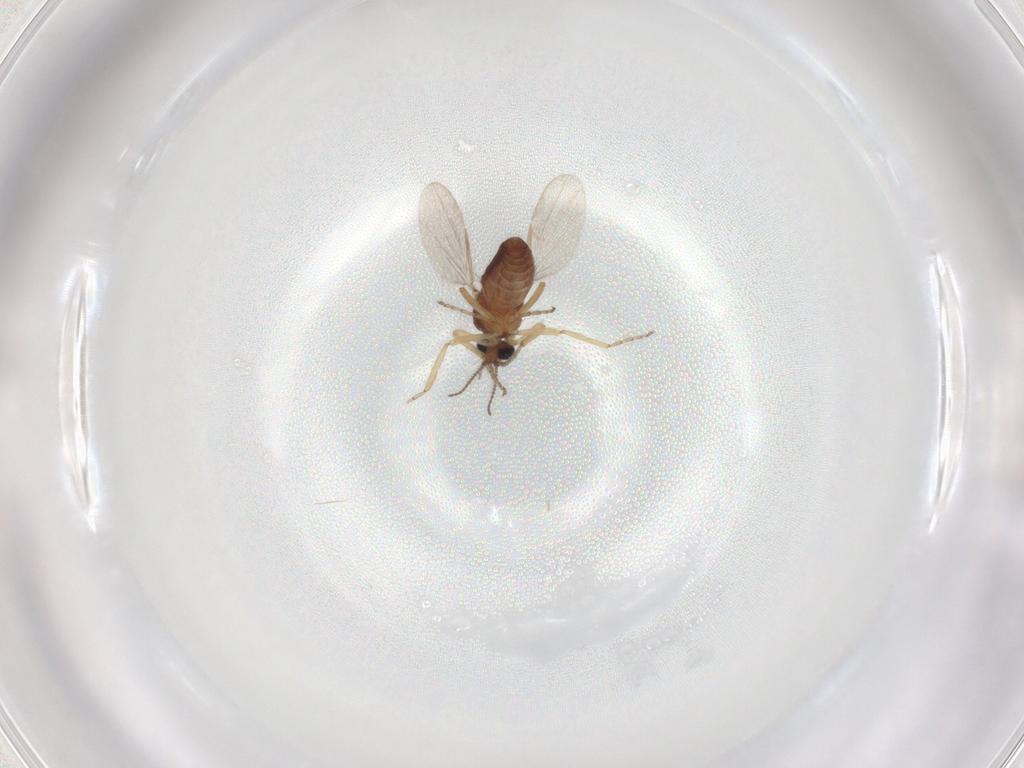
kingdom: Animalia
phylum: Arthropoda
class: Insecta
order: Diptera
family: Ceratopogonidae
